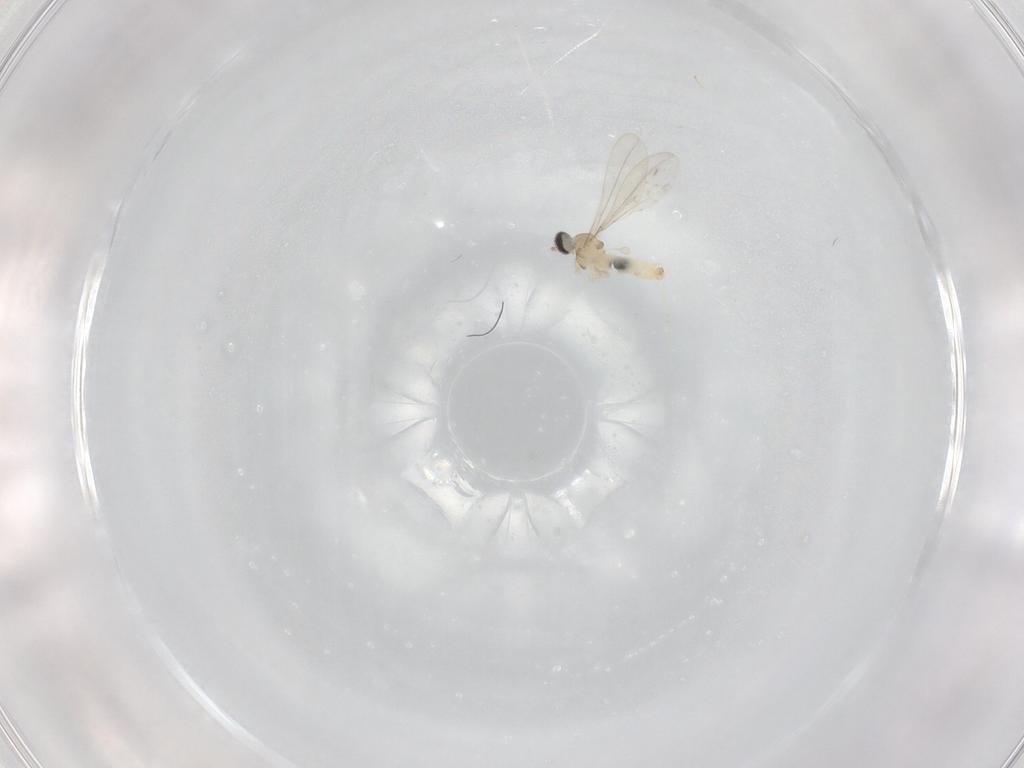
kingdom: Animalia
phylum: Arthropoda
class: Insecta
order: Diptera
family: Cecidomyiidae
